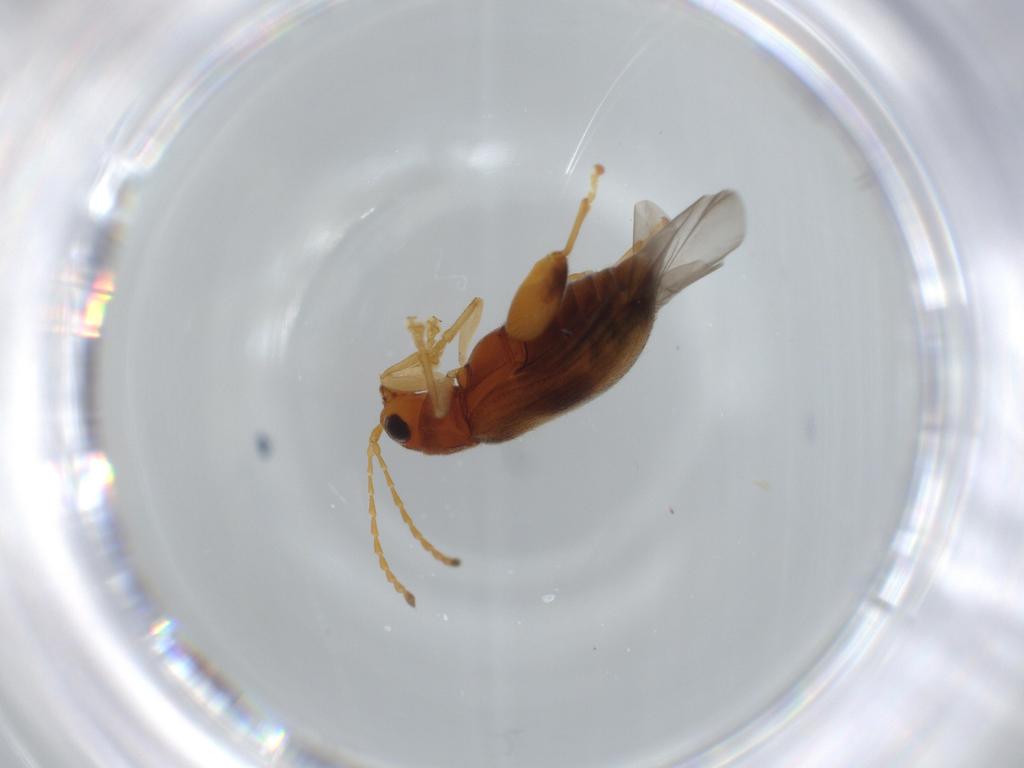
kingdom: Animalia
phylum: Arthropoda
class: Insecta
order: Coleoptera
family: Chrysomelidae
